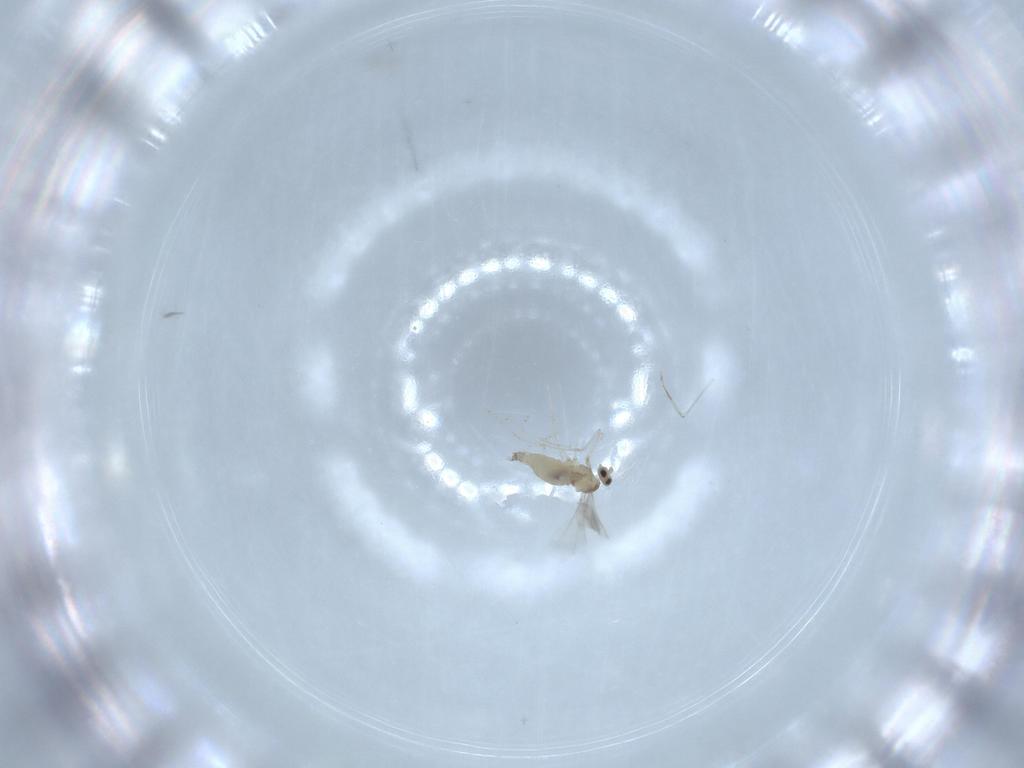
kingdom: Animalia
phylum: Arthropoda
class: Insecta
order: Diptera
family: Cecidomyiidae
